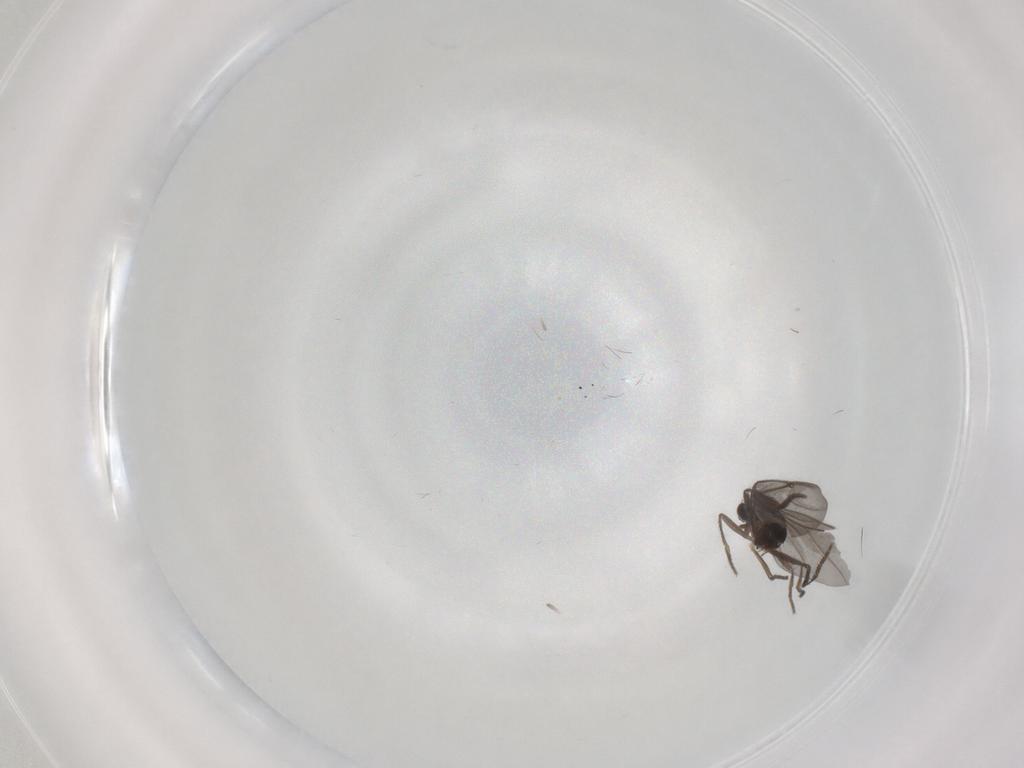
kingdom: Animalia
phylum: Arthropoda
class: Insecta
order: Diptera
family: Phoridae
